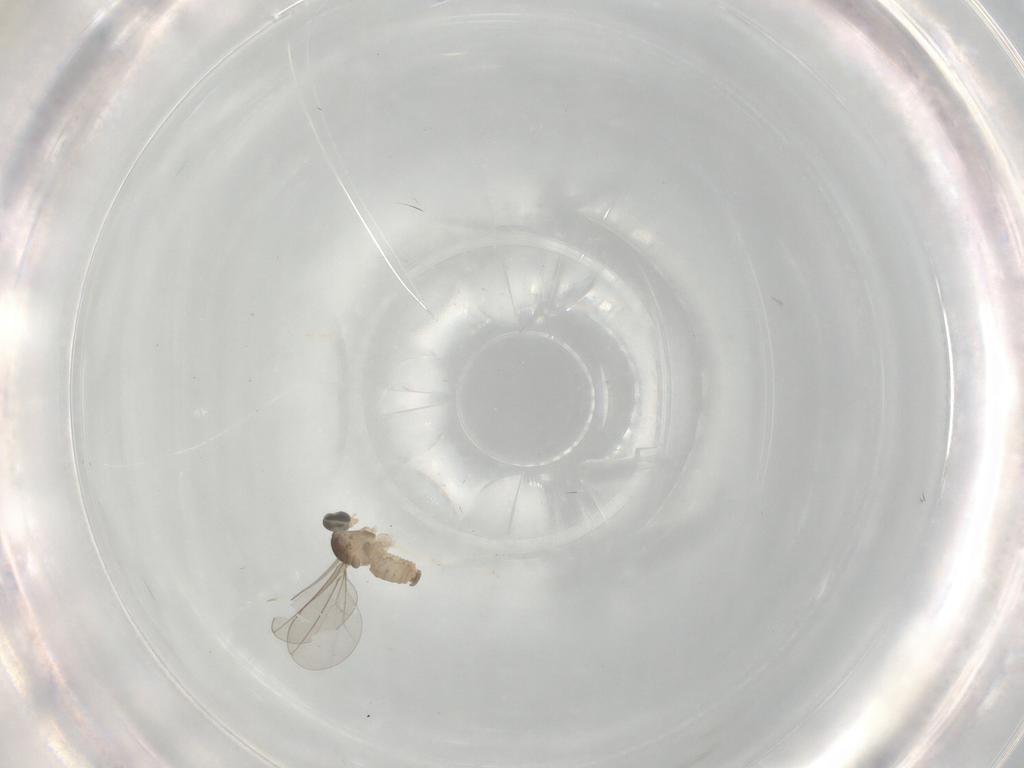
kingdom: Animalia
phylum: Arthropoda
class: Insecta
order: Diptera
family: Cecidomyiidae
